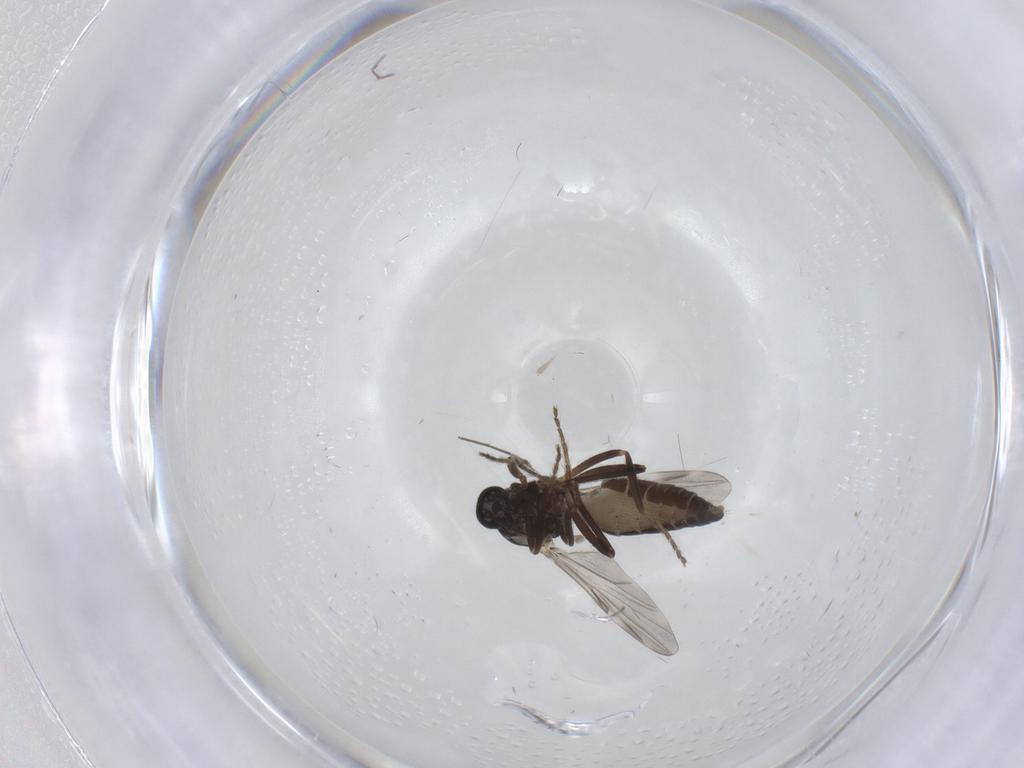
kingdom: Animalia
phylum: Arthropoda
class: Insecta
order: Diptera
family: Ceratopogonidae
